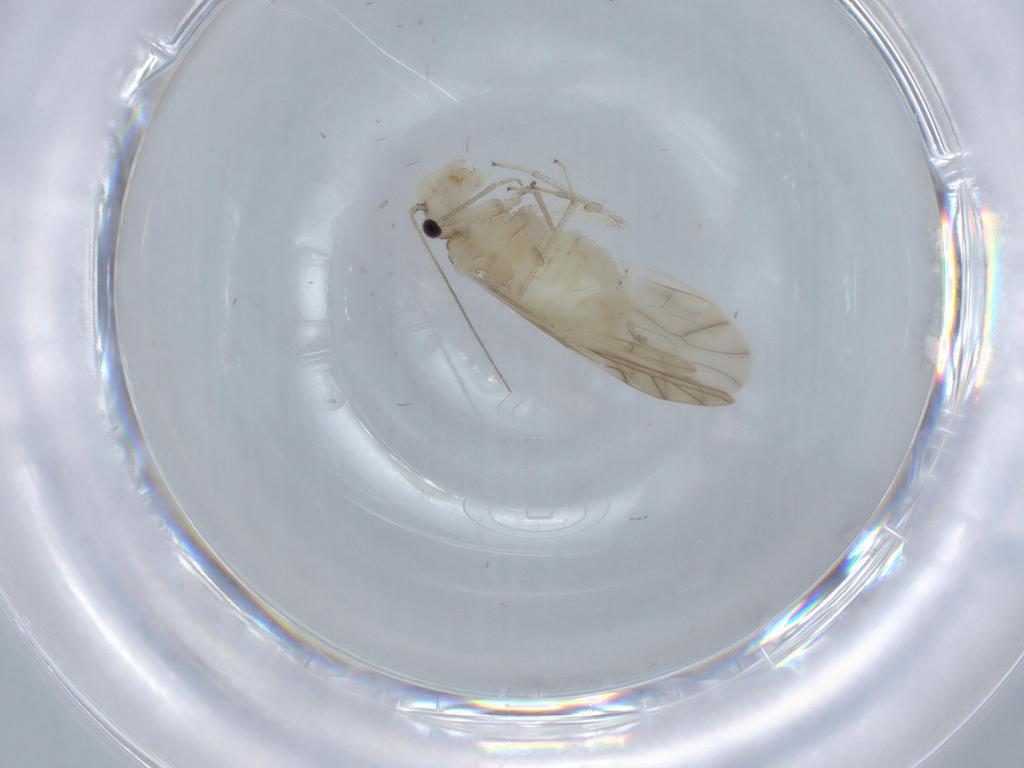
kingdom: Animalia
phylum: Arthropoda
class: Insecta
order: Psocodea
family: Caeciliusidae
